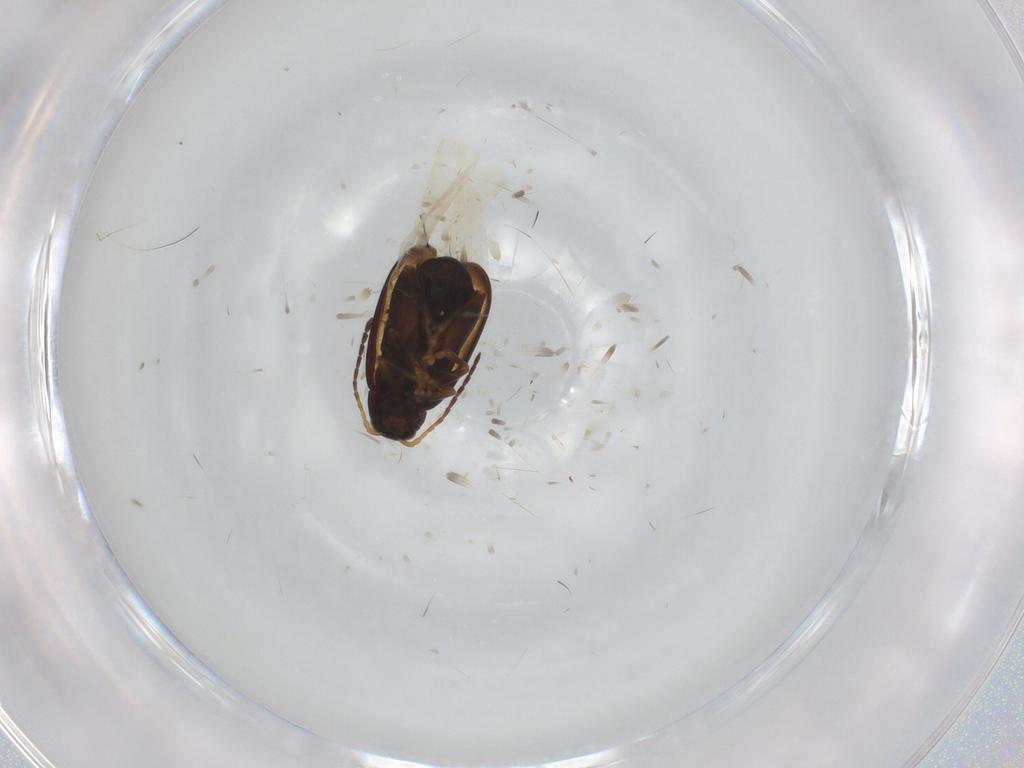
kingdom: Animalia
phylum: Arthropoda
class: Insecta
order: Coleoptera
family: Chrysomelidae
